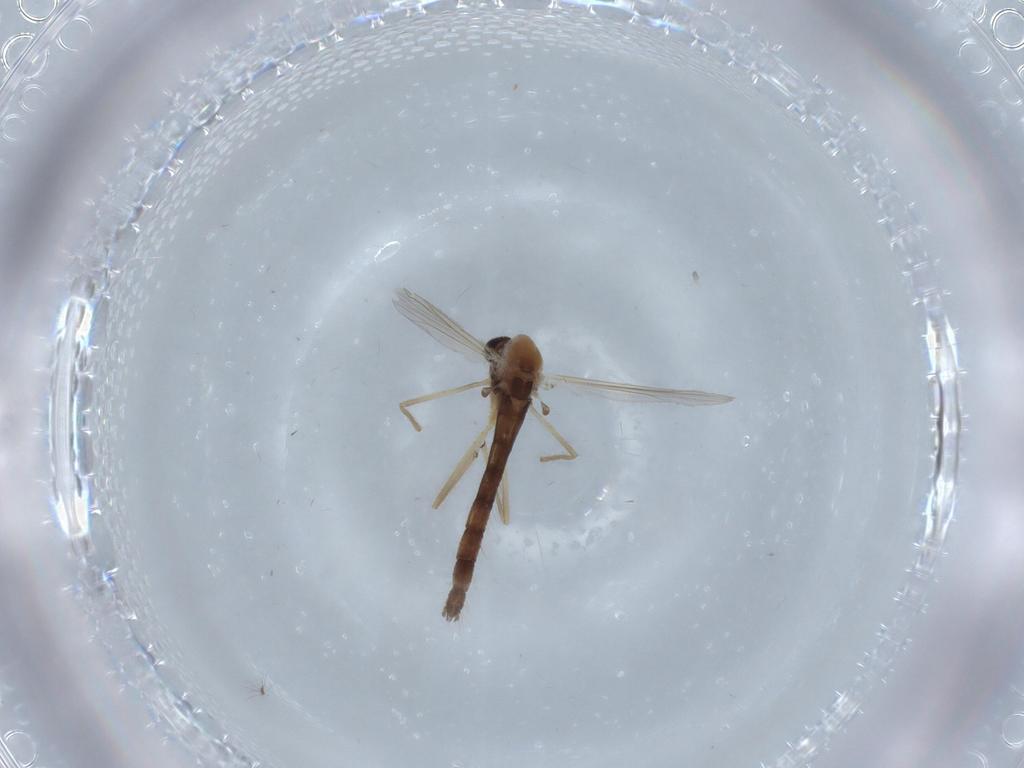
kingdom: Animalia
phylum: Arthropoda
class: Insecta
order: Diptera
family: Chironomidae
